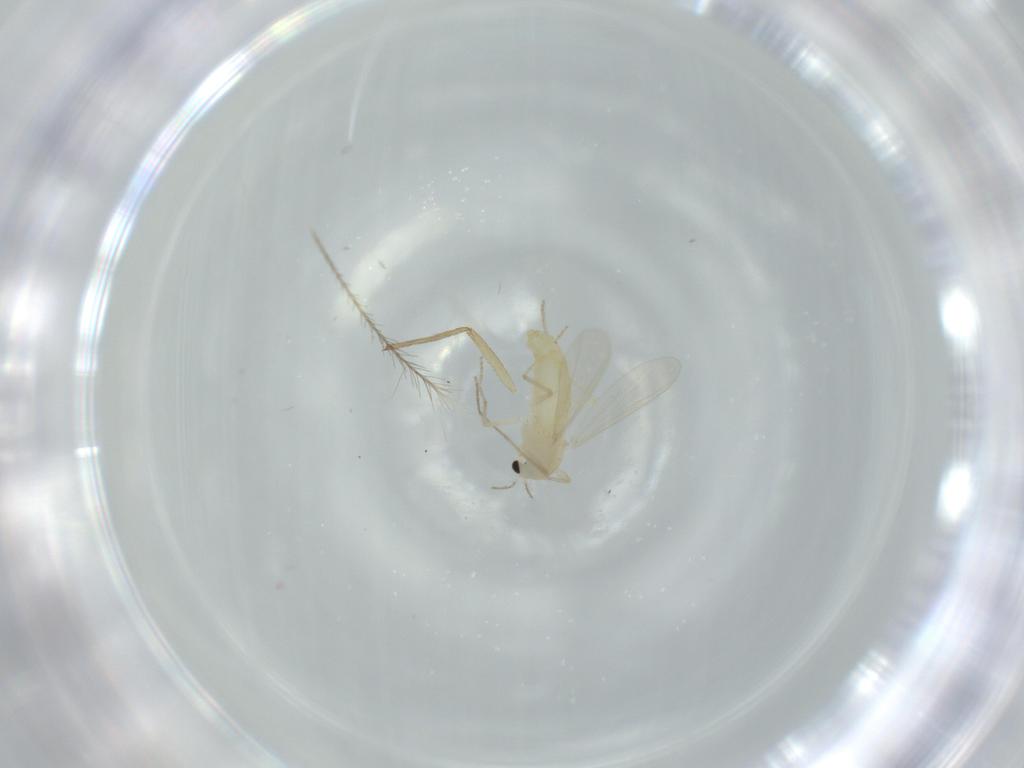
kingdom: Animalia
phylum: Arthropoda
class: Insecta
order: Diptera
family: Chironomidae
